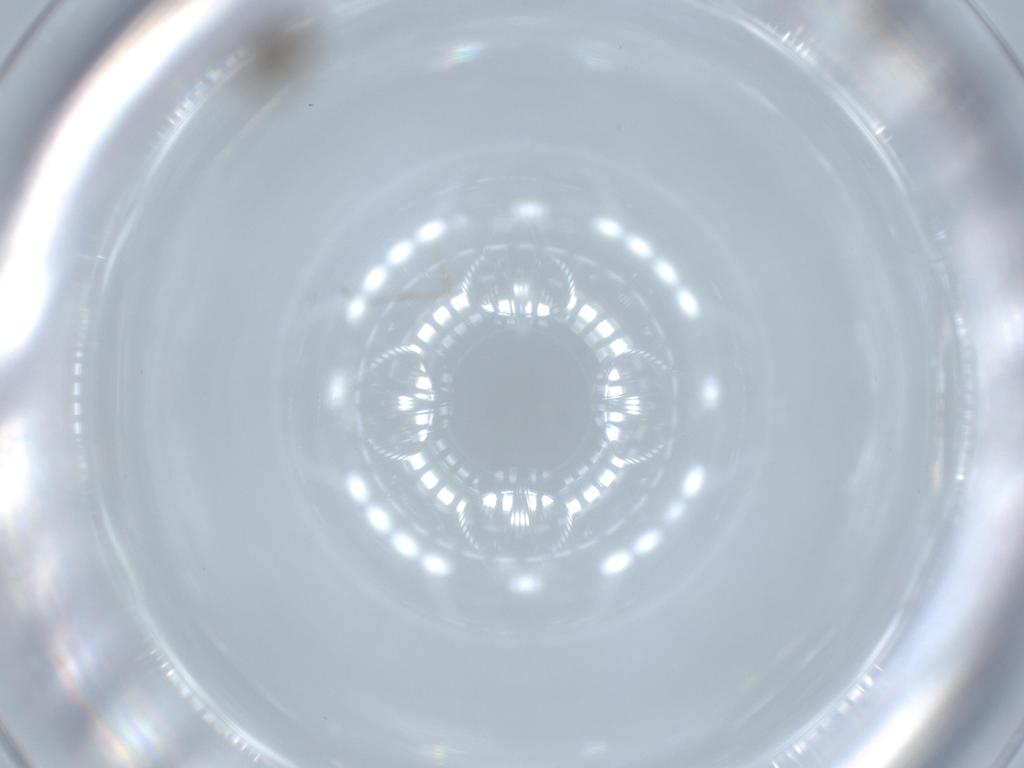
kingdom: Animalia
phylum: Arthropoda
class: Insecta
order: Diptera
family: Cecidomyiidae
